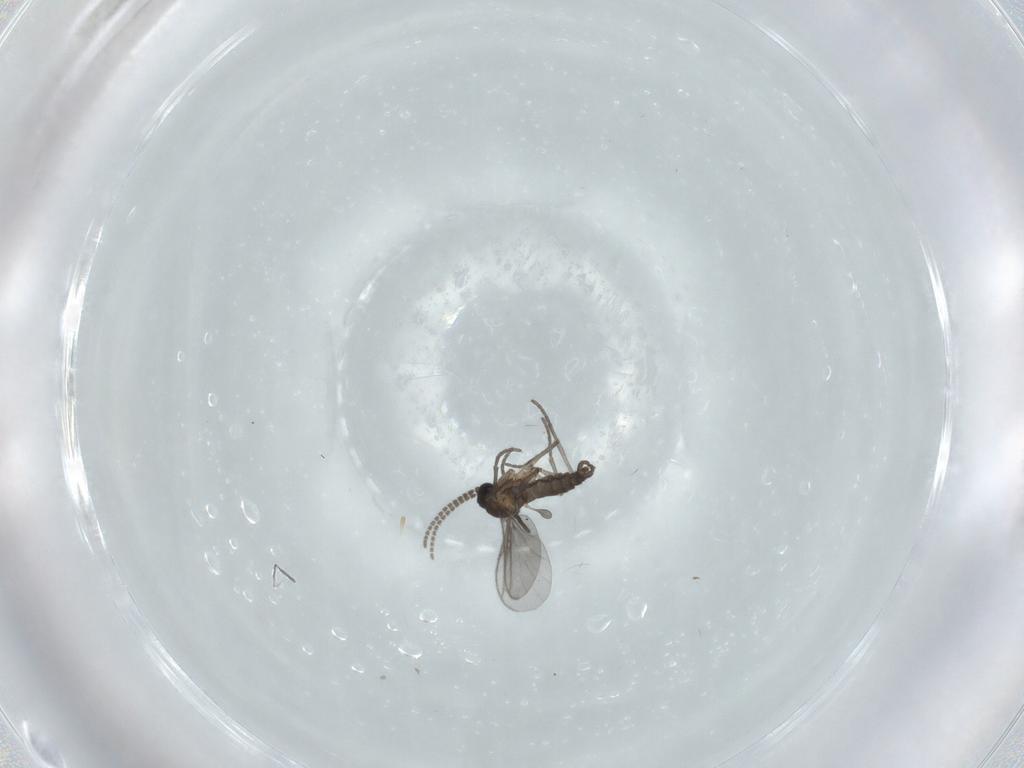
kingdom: Animalia
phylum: Arthropoda
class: Insecta
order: Diptera
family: Sciaridae
